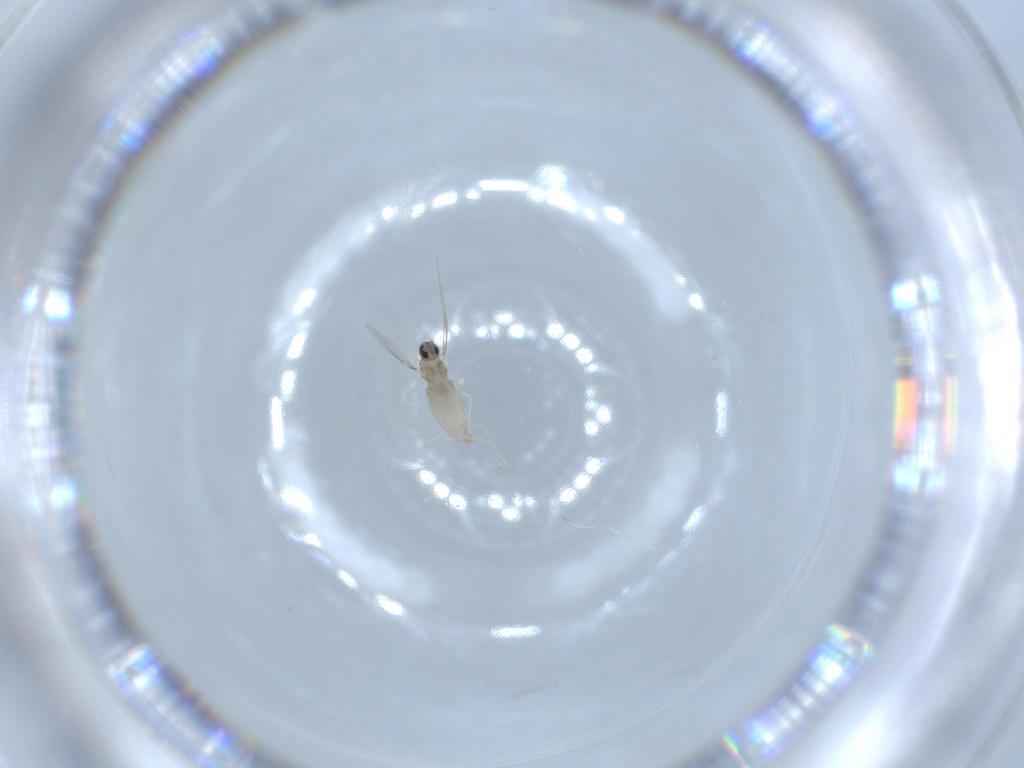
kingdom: Animalia
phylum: Arthropoda
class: Insecta
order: Diptera
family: Cecidomyiidae
